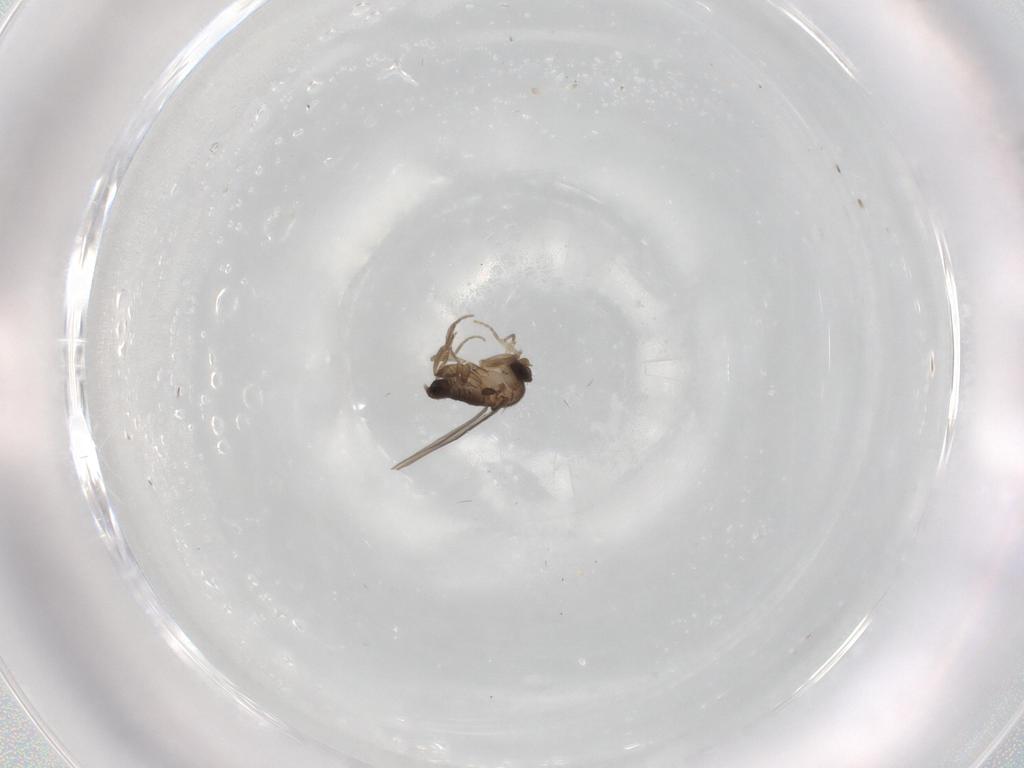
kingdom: Animalia
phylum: Arthropoda
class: Insecta
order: Diptera
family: Phoridae
